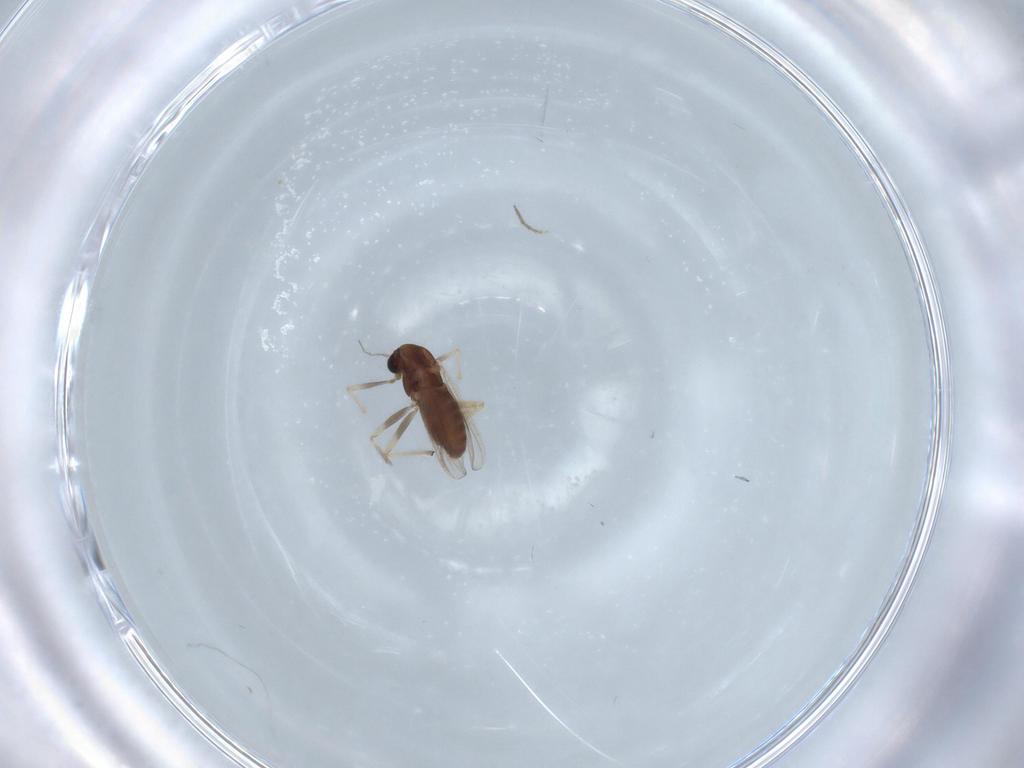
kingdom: Animalia
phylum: Arthropoda
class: Insecta
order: Diptera
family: Chironomidae
